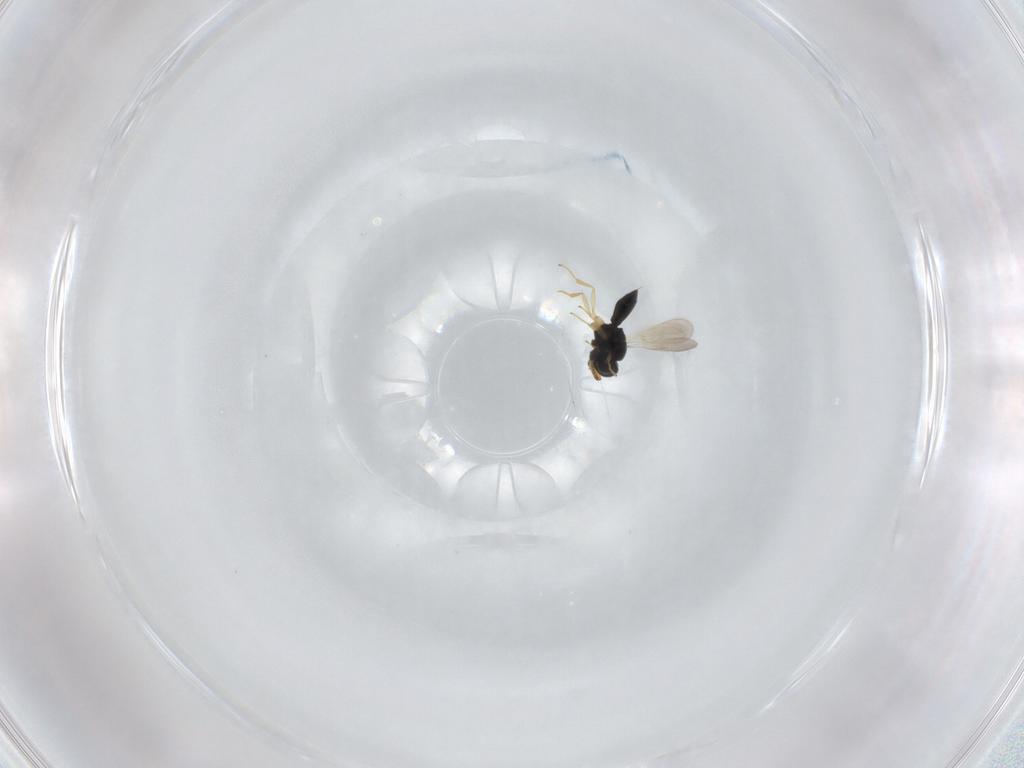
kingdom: Animalia
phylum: Arthropoda
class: Insecta
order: Hymenoptera
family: Scelionidae
